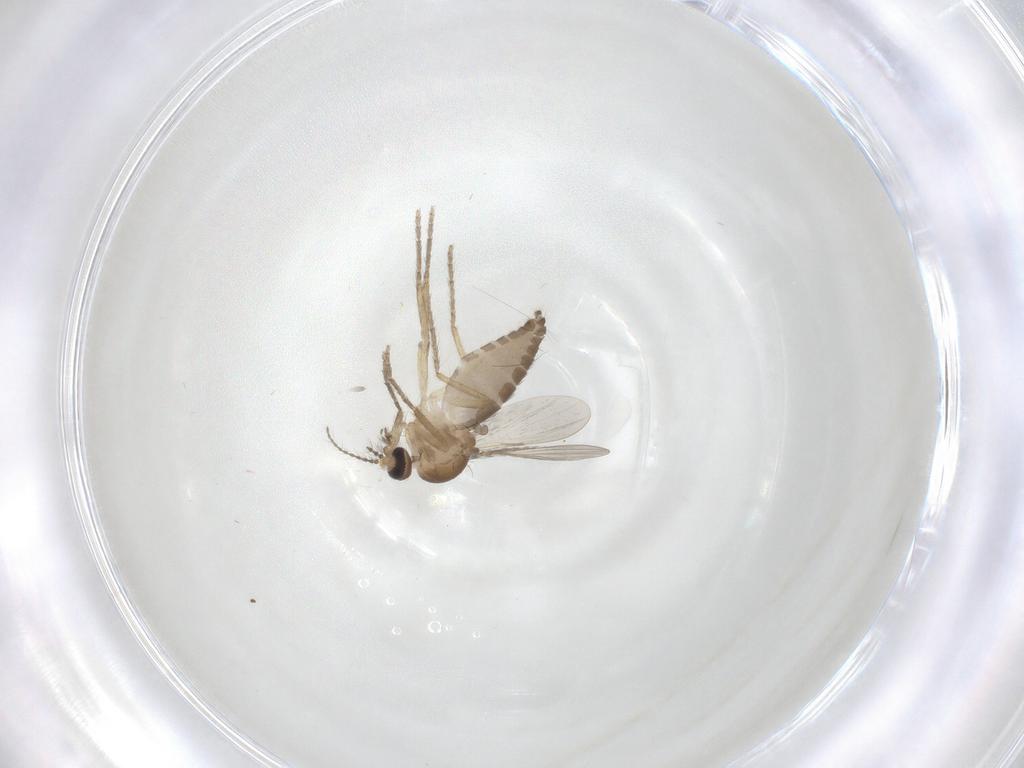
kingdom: Animalia
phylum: Arthropoda
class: Insecta
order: Diptera
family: Ceratopogonidae
